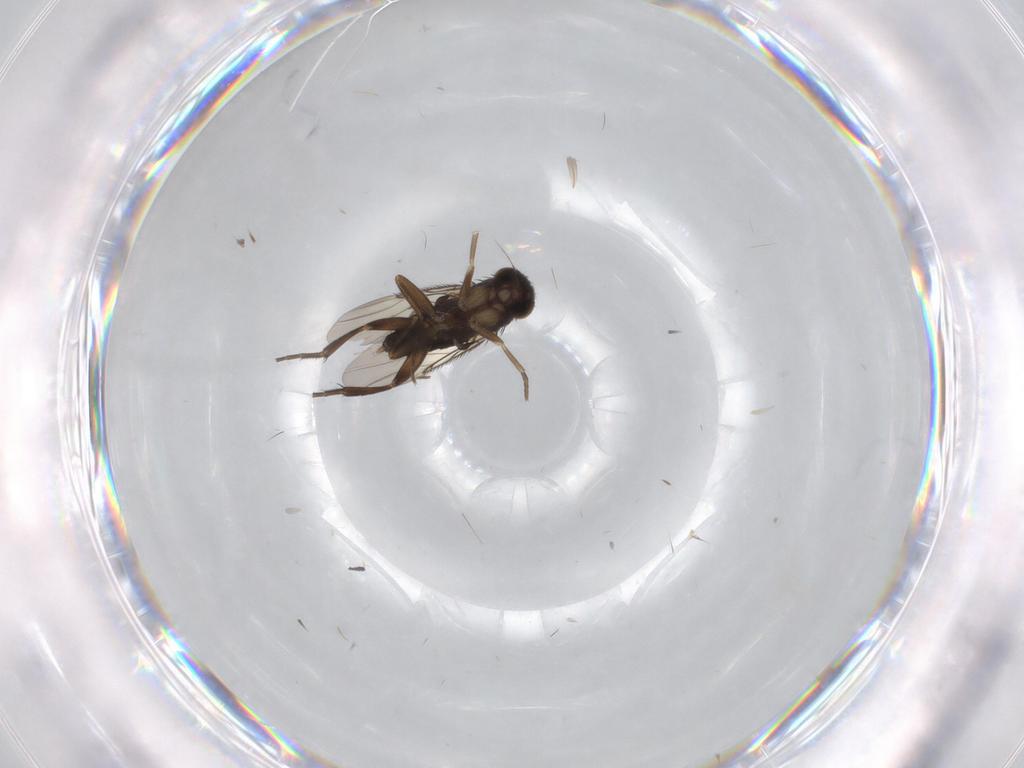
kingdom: Animalia
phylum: Arthropoda
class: Insecta
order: Diptera
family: Phoridae
